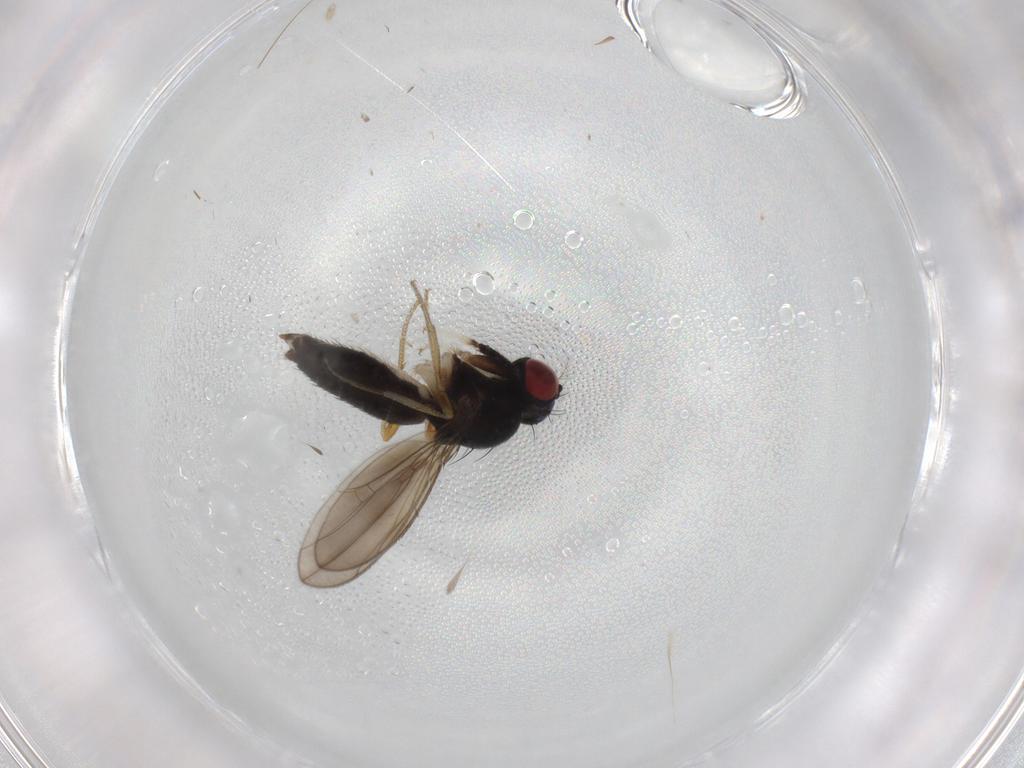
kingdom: Animalia
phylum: Arthropoda
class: Insecta
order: Diptera
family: Drosophilidae
